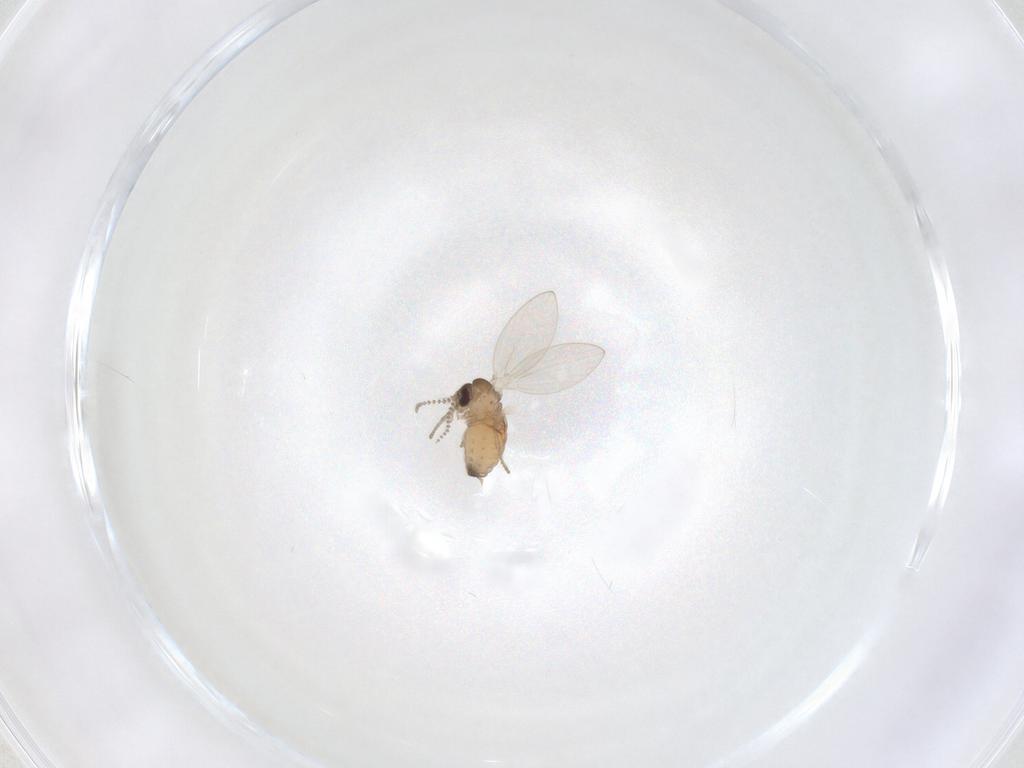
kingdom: Animalia
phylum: Arthropoda
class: Insecta
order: Diptera
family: Psychodidae
